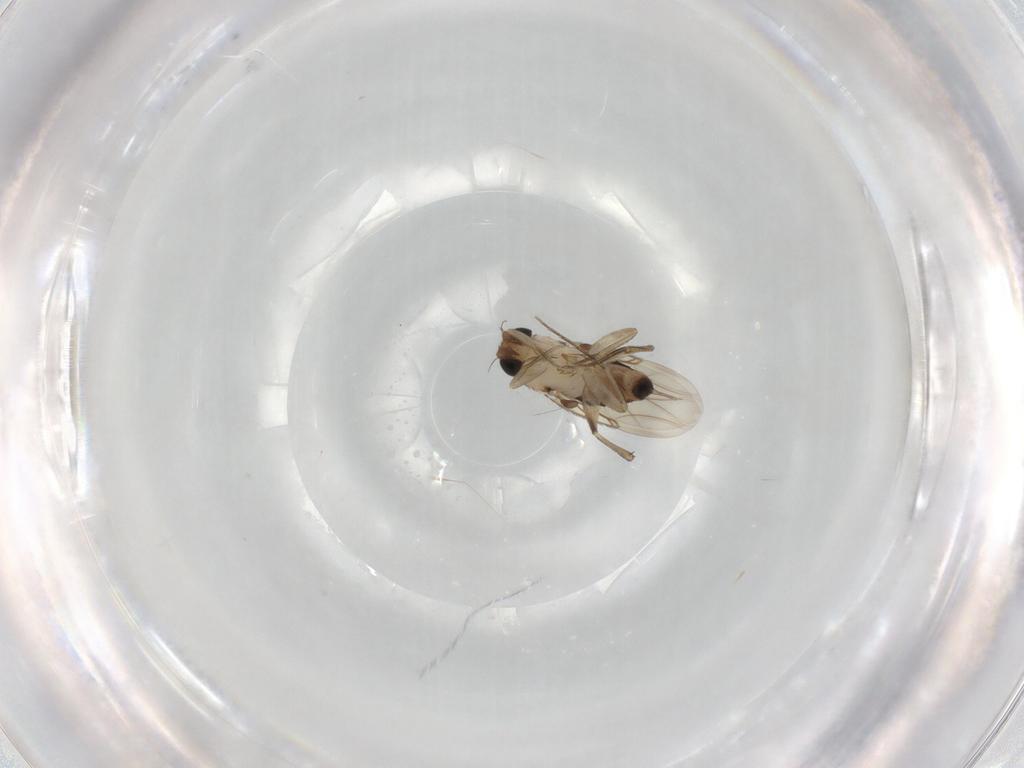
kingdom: Animalia
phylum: Arthropoda
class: Insecta
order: Diptera
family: Phoridae
